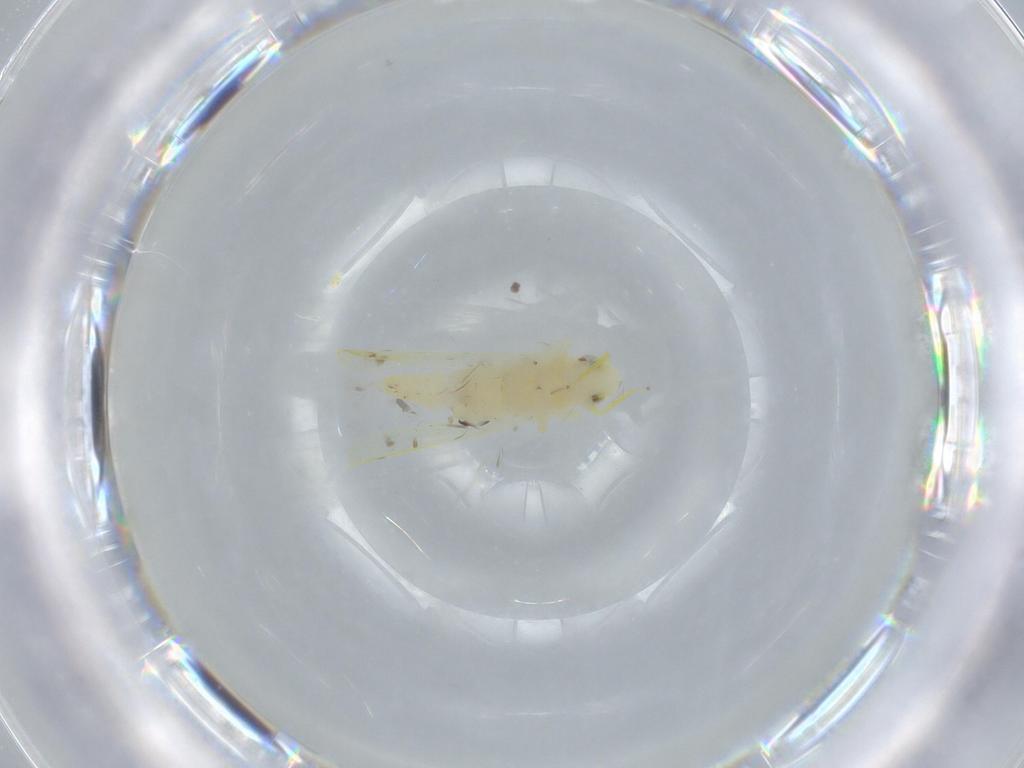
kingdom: Animalia
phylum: Arthropoda
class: Insecta
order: Hemiptera
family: Cicadellidae
